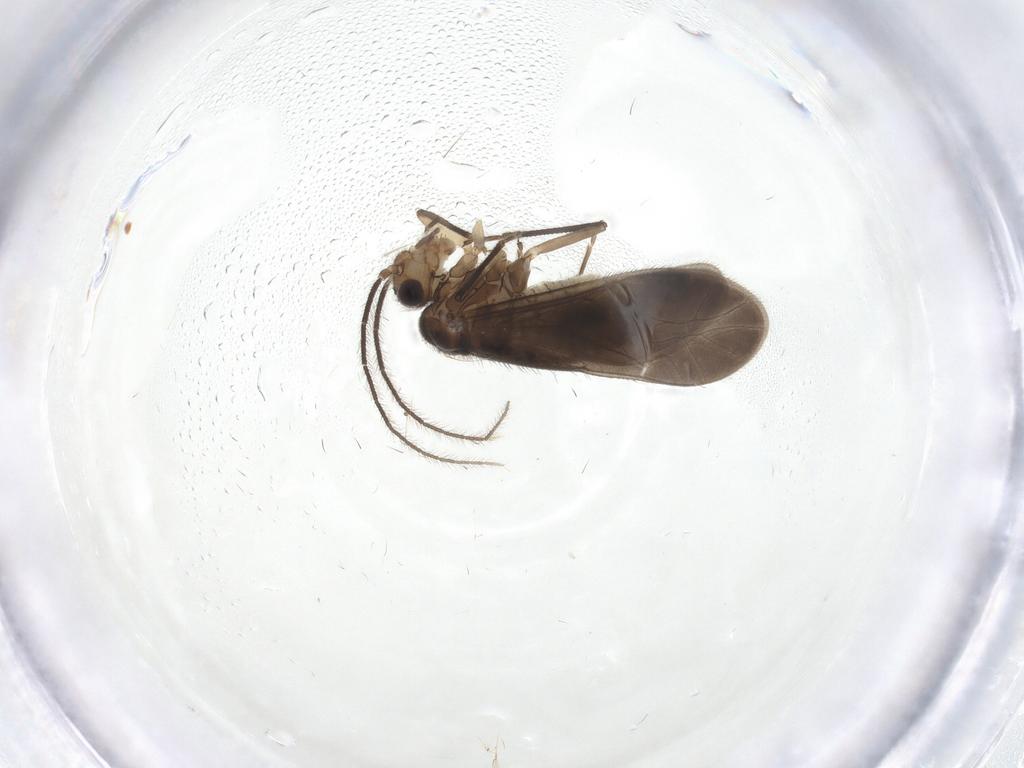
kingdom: Animalia
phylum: Arthropoda
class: Insecta
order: Psocodea
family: Caeciliusidae
